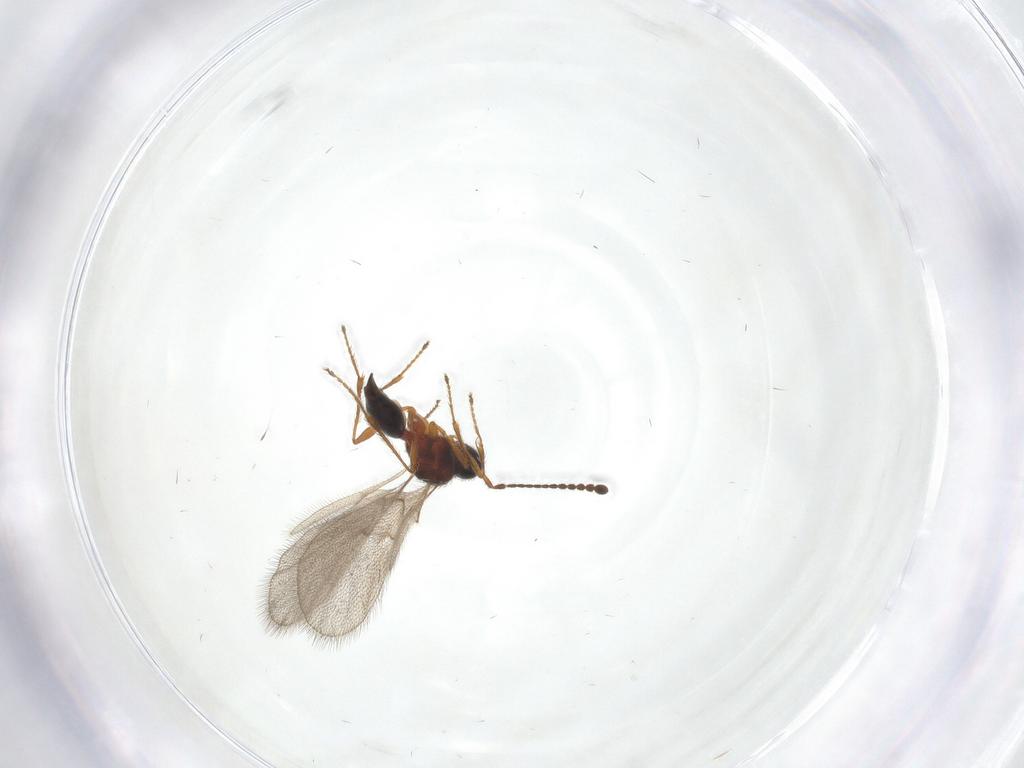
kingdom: Animalia
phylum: Arthropoda
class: Insecta
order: Hymenoptera
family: Diapriidae
